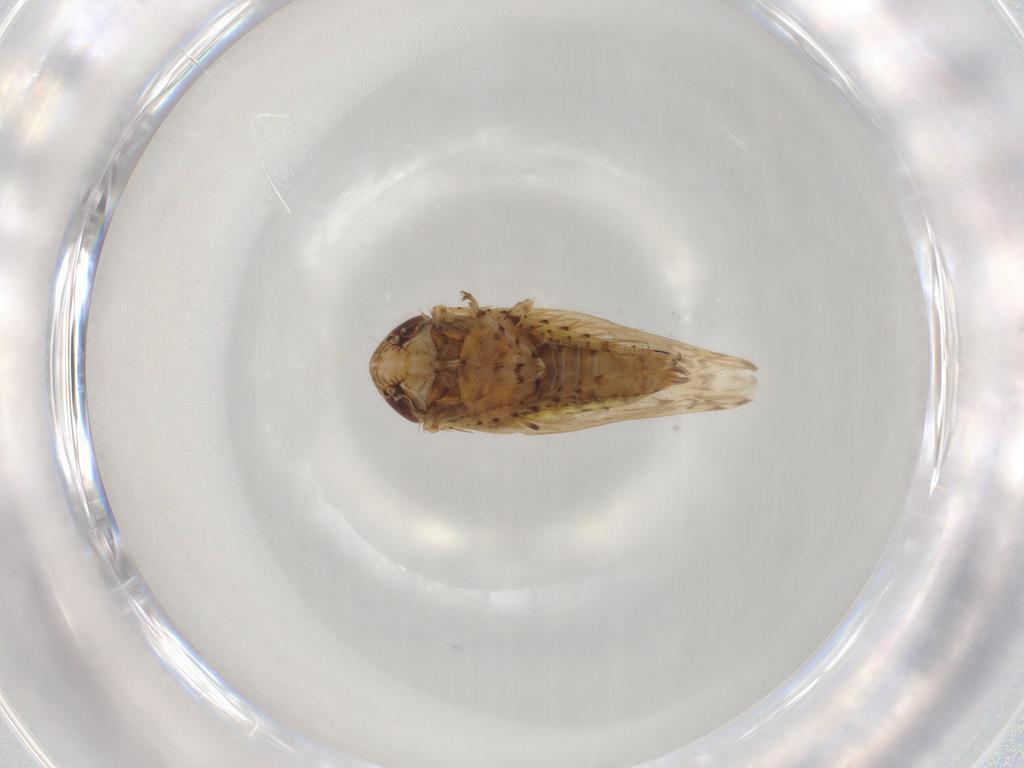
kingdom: Animalia
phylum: Arthropoda
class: Insecta
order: Hemiptera
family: Cicadellidae
